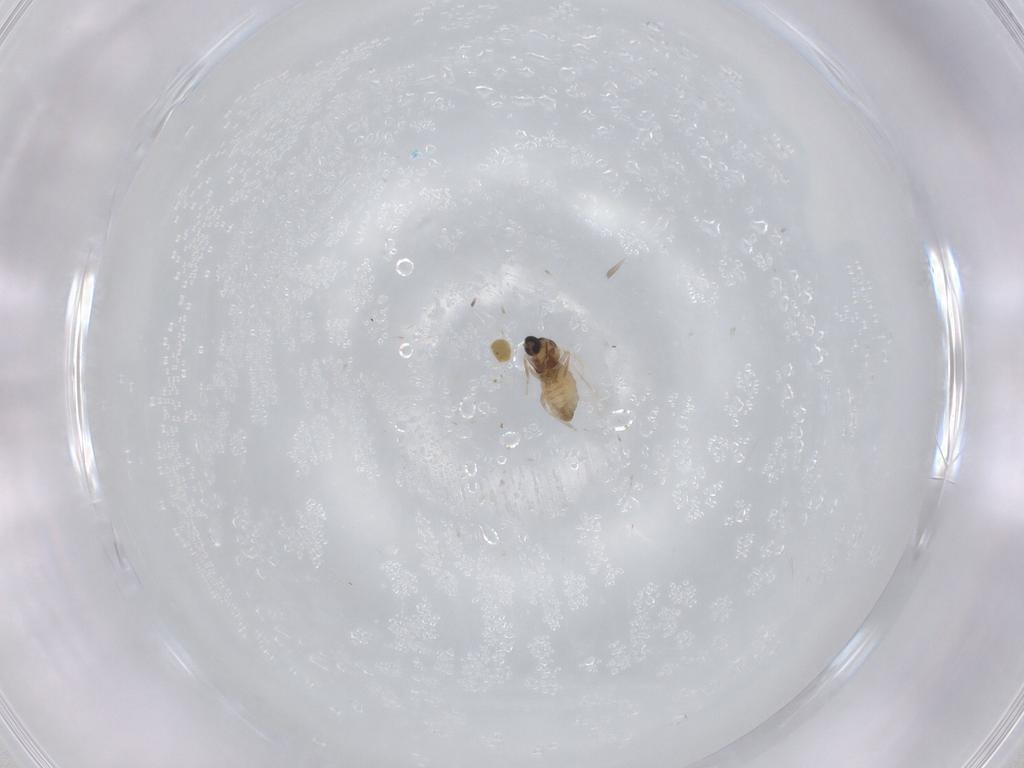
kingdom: Animalia
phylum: Arthropoda
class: Insecta
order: Diptera
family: Cecidomyiidae
